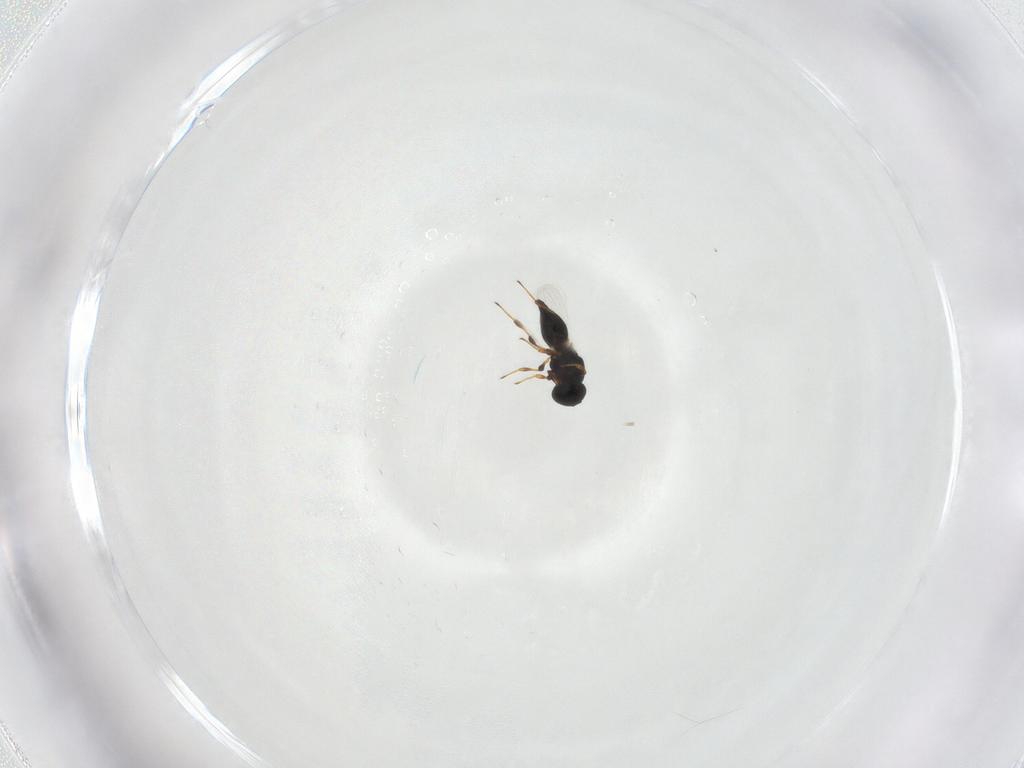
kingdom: Animalia
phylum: Arthropoda
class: Insecta
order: Hymenoptera
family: Platygastridae
